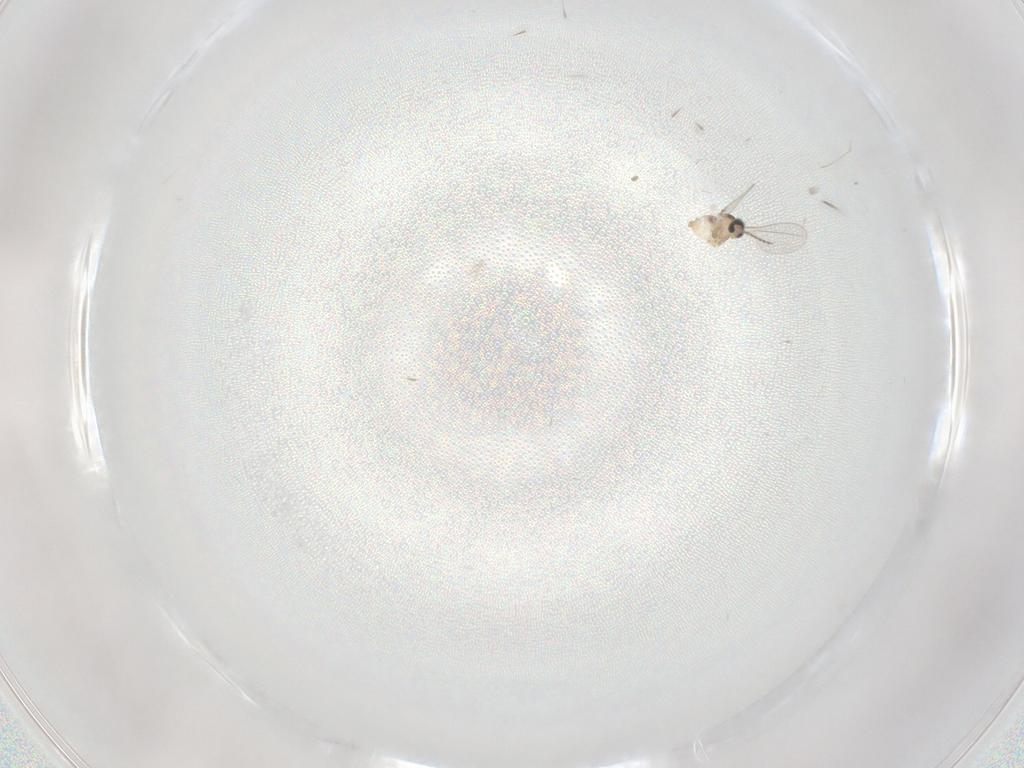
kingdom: Animalia
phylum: Arthropoda
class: Insecta
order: Diptera
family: Cecidomyiidae
